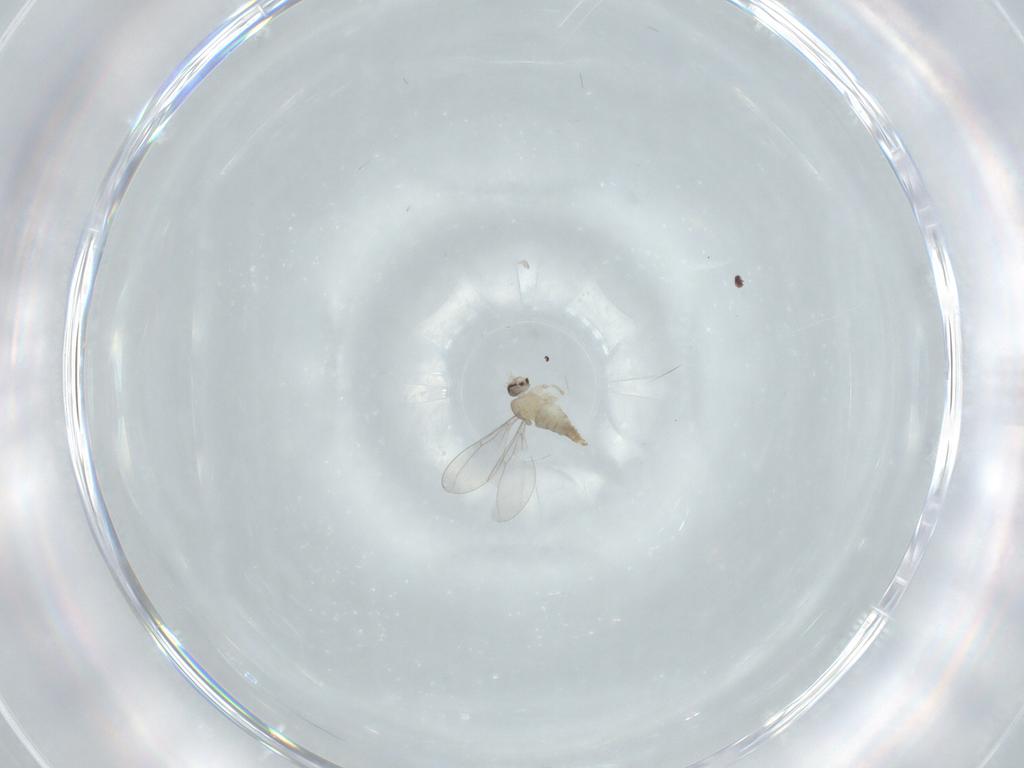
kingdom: Animalia
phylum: Arthropoda
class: Insecta
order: Diptera
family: Cecidomyiidae
